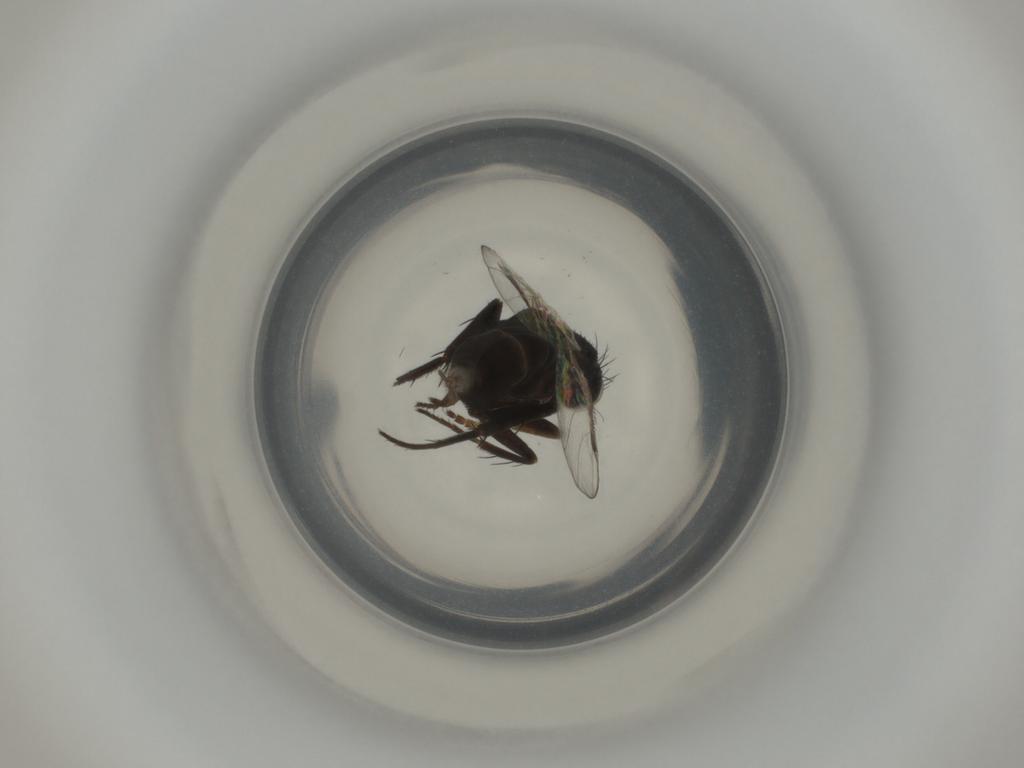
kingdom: Animalia
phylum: Arthropoda
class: Insecta
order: Diptera
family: Phoridae
